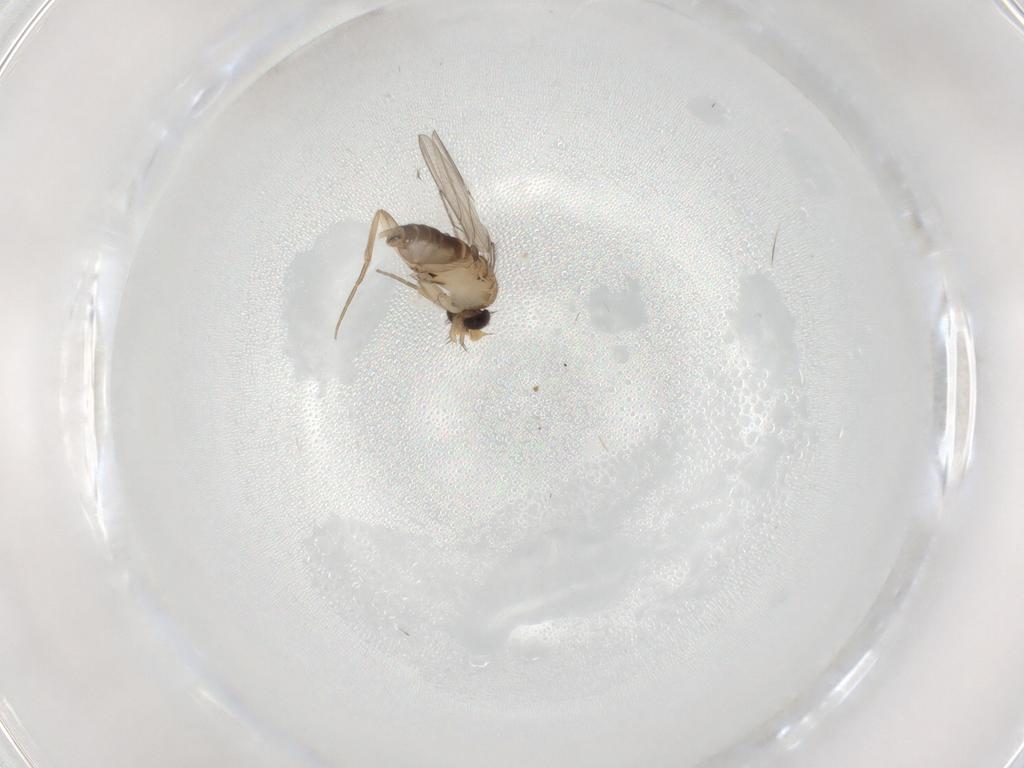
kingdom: Animalia
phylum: Arthropoda
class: Insecta
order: Diptera
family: Phoridae
